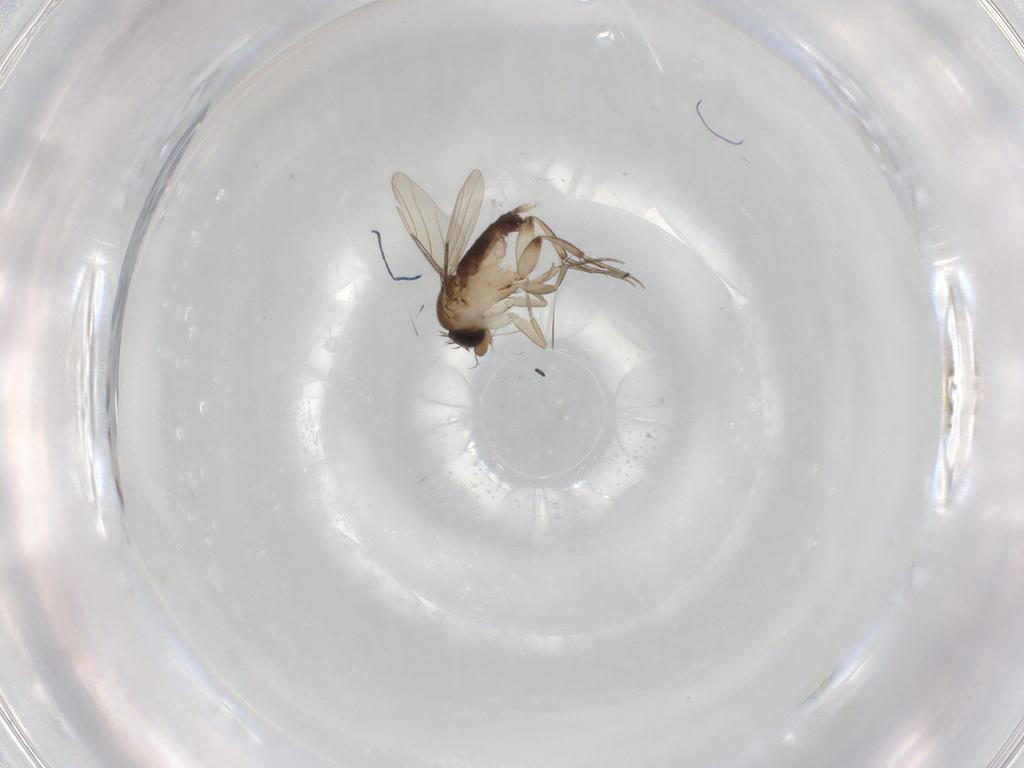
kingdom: Animalia
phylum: Arthropoda
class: Insecta
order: Diptera
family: Phoridae
